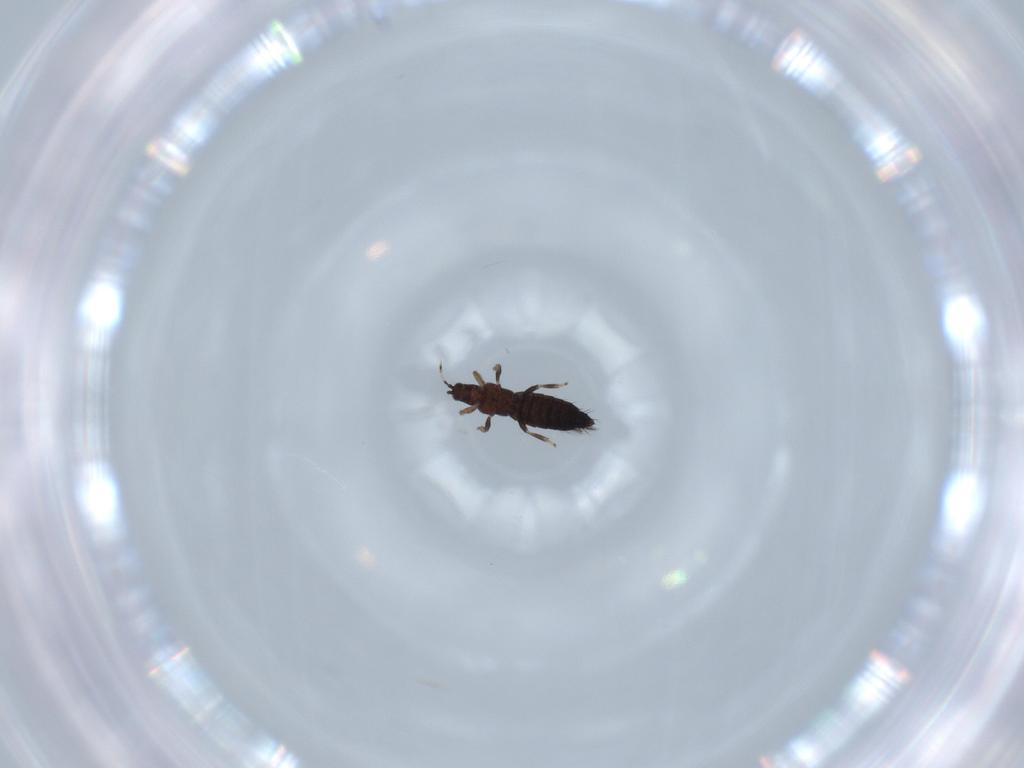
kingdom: Animalia
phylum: Arthropoda
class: Insecta
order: Thysanoptera
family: Thripidae
